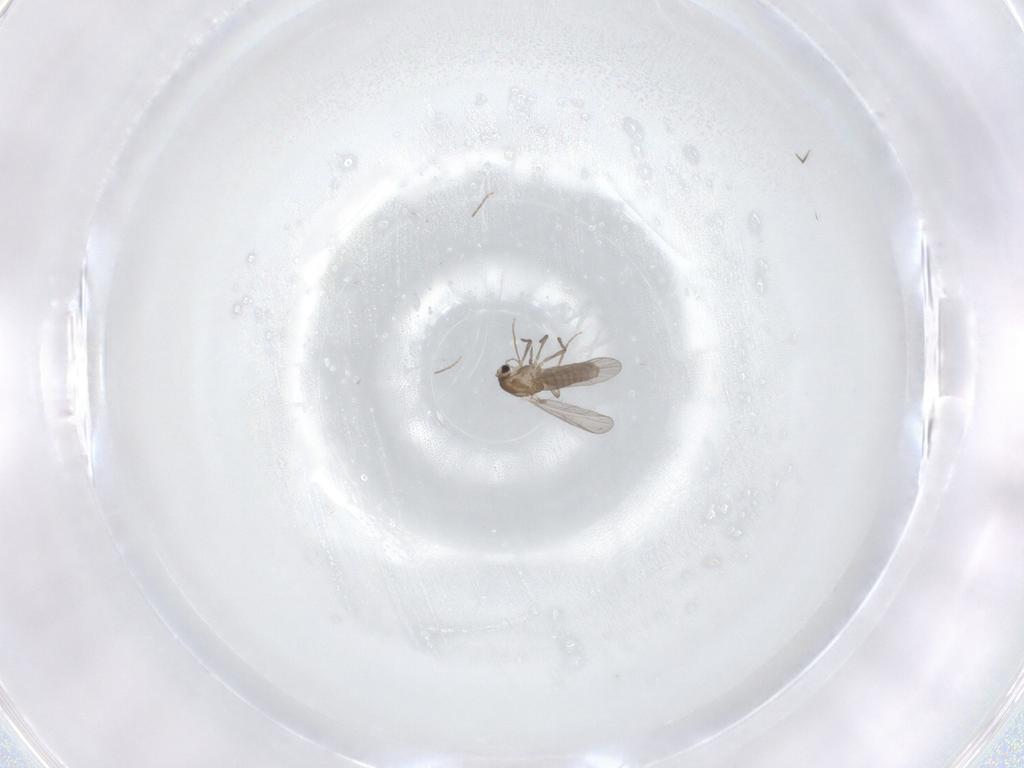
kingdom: Animalia
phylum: Arthropoda
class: Insecta
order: Diptera
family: Chironomidae
